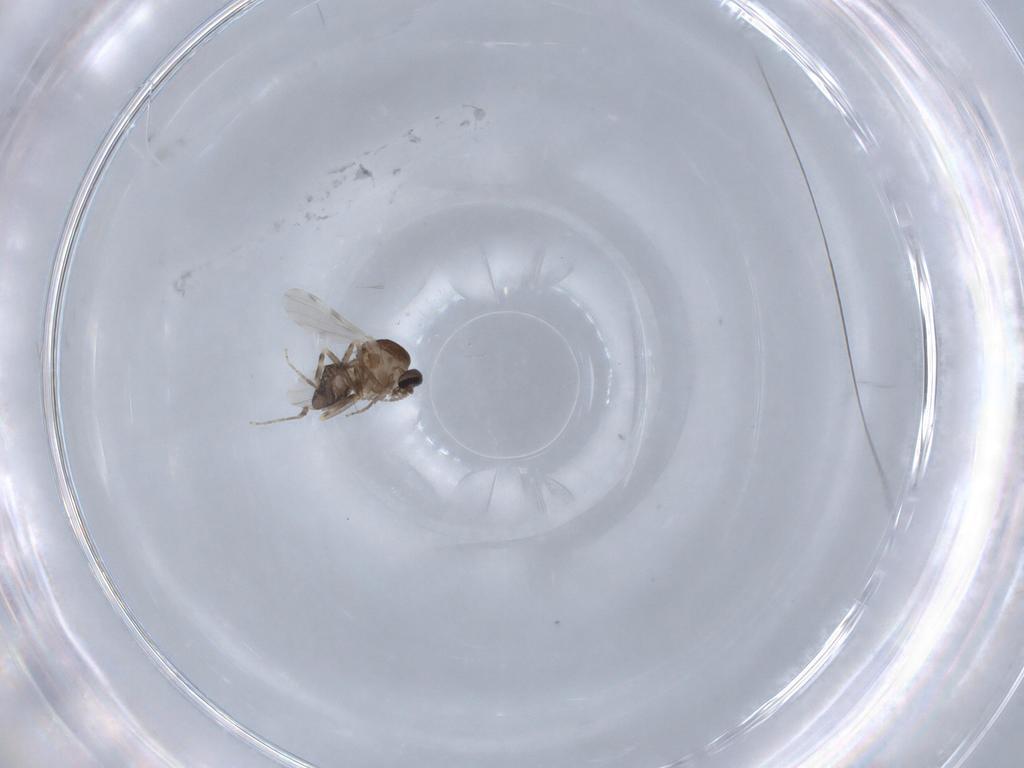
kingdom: Animalia
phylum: Arthropoda
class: Insecta
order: Diptera
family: Ceratopogonidae
